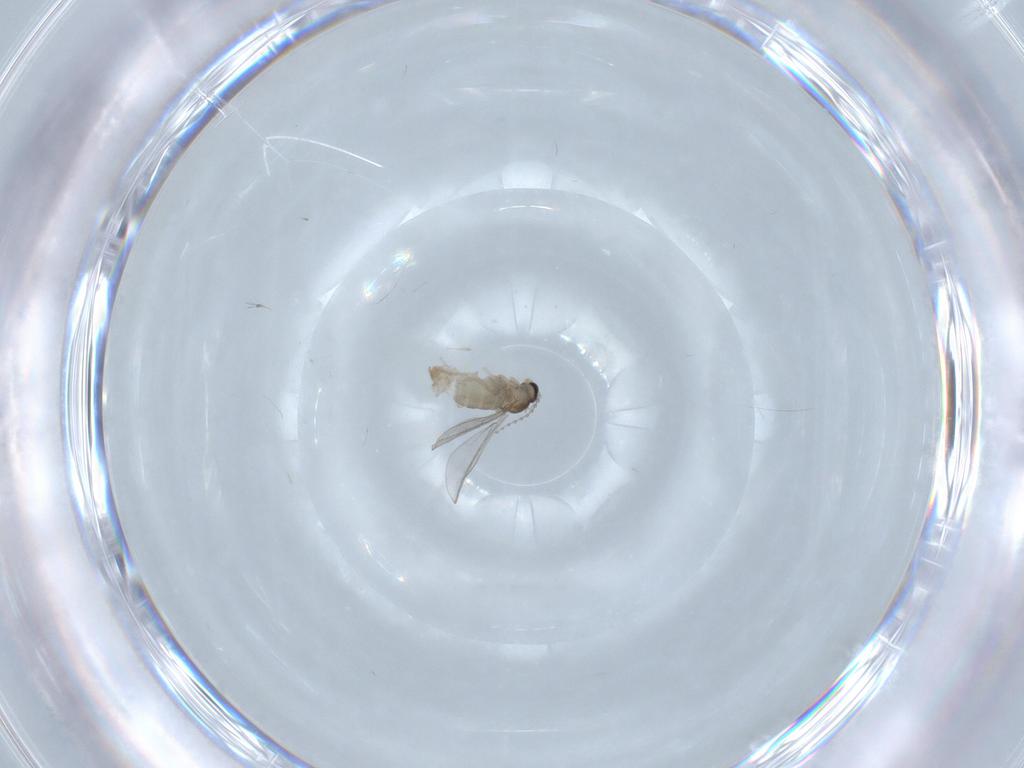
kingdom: Animalia
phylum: Arthropoda
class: Insecta
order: Diptera
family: Cecidomyiidae
